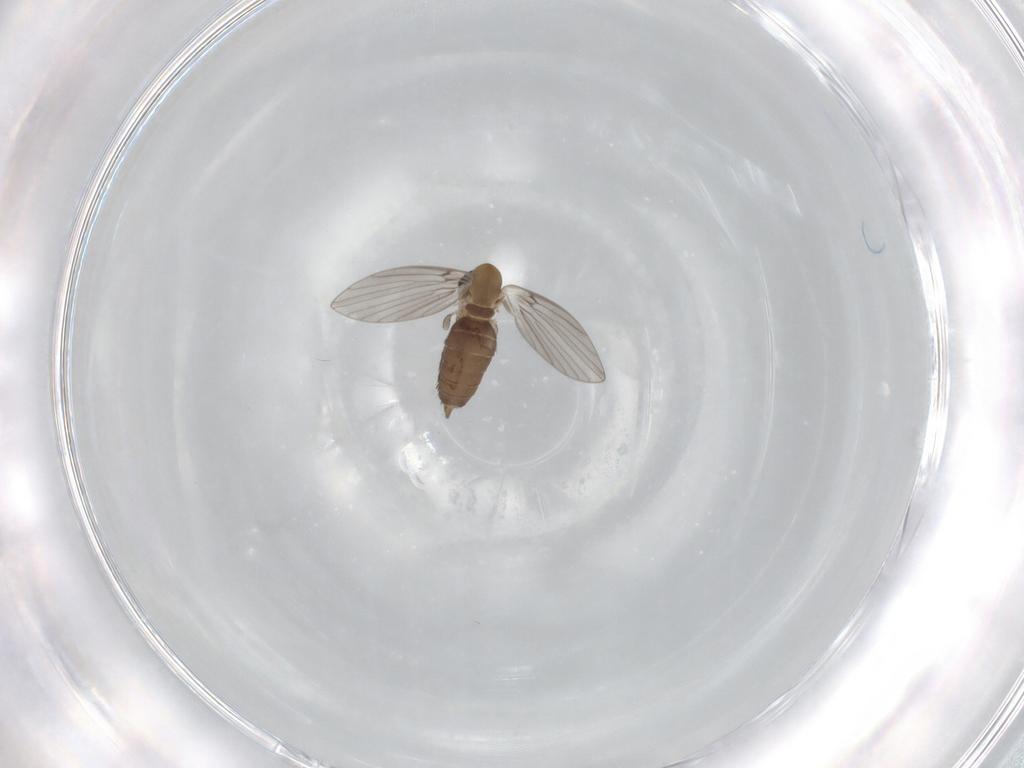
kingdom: Animalia
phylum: Arthropoda
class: Insecta
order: Diptera
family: Psychodidae
